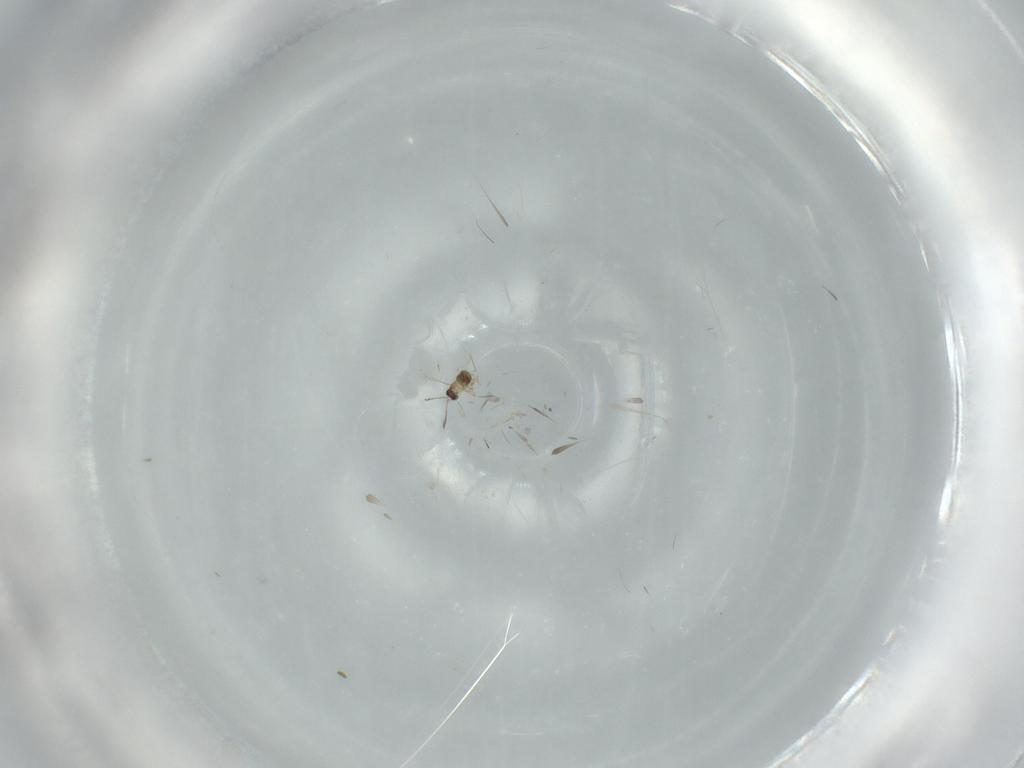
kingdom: Animalia
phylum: Arthropoda
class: Insecta
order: Hymenoptera
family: Mymaridae
